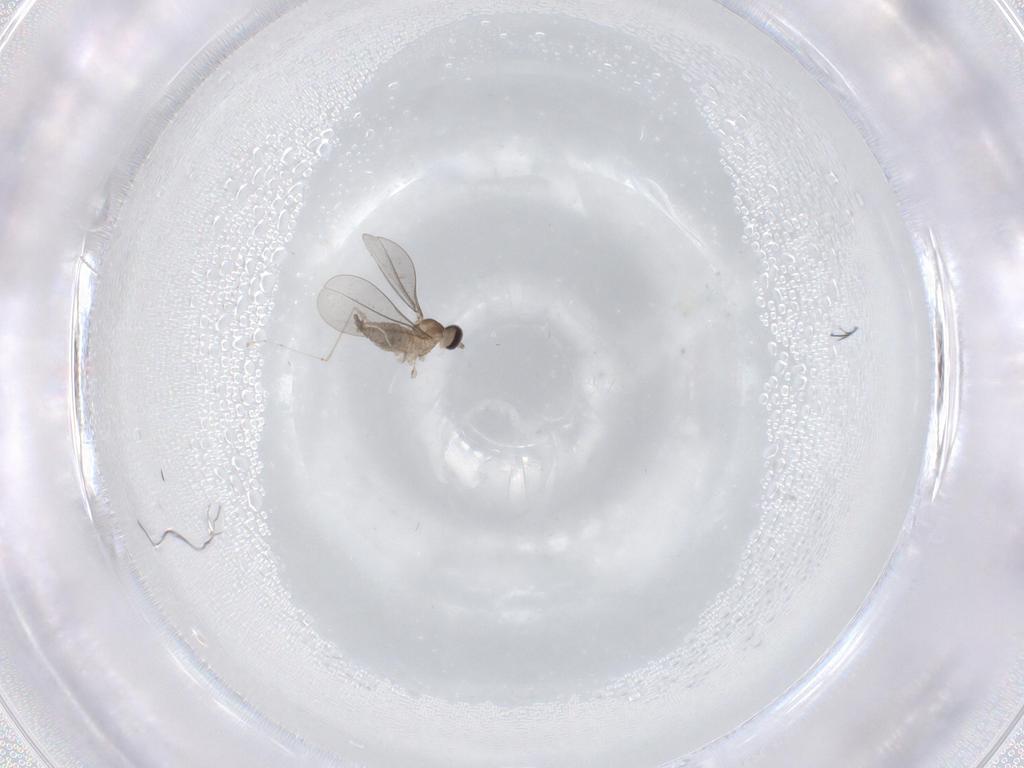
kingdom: Animalia
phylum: Arthropoda
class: Insecta
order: Diptera
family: Cecidomyiidae
